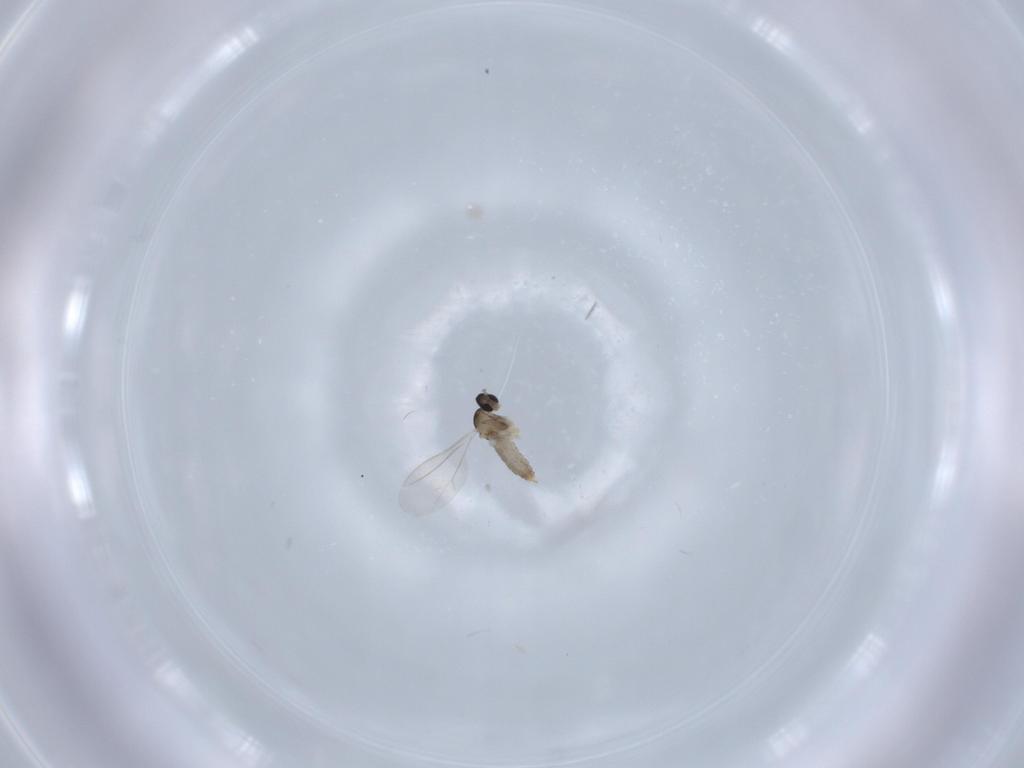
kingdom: Animalia
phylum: Arthropoda
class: Insecta
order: Diptera
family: Cecidomyiidae
